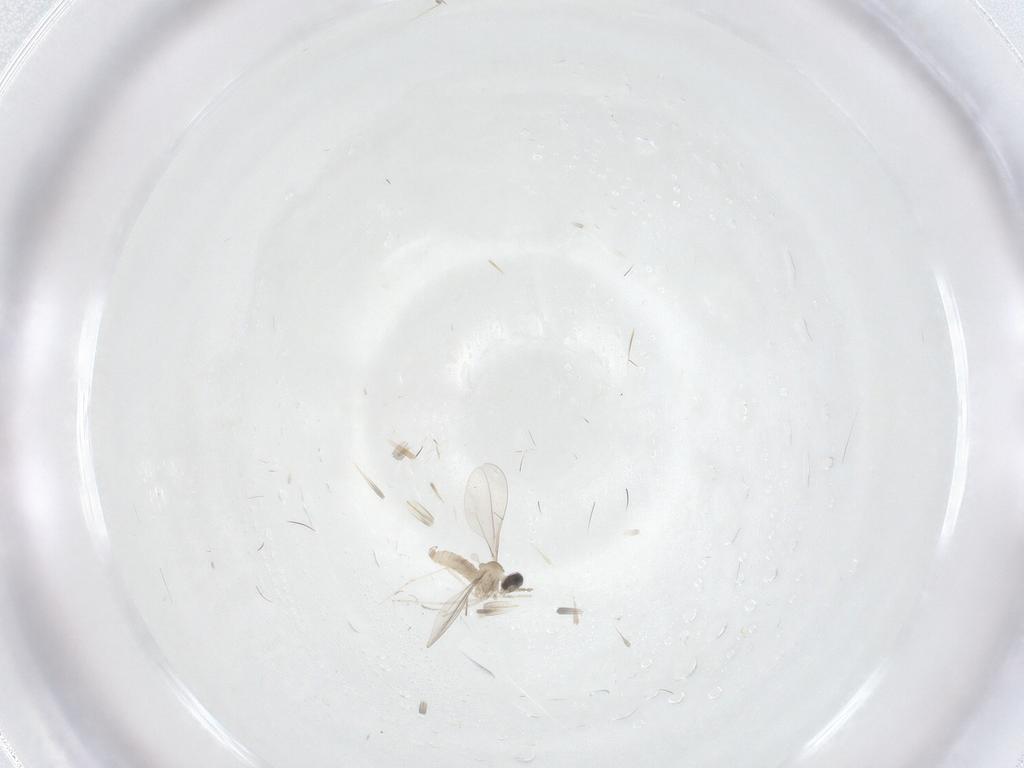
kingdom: Animalia
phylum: Arthropoda
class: Insecta
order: Diptera
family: Cecidomyiidae
